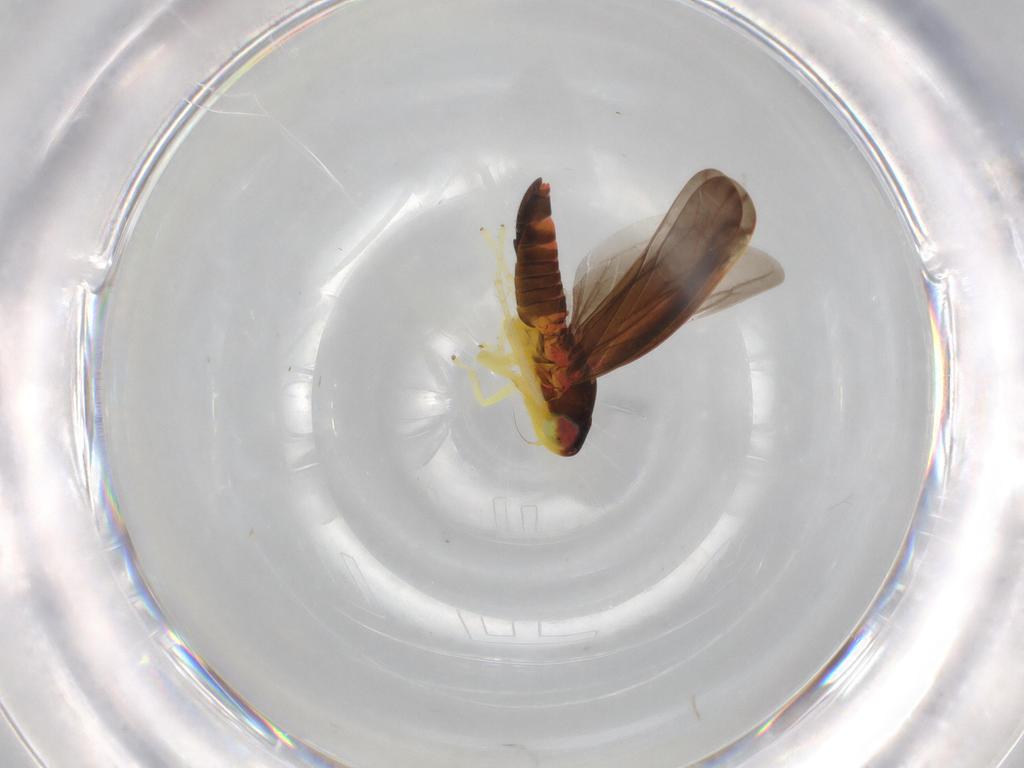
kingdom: Animalia
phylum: Arthropoda
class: Insecta
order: Hemiptera
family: Cicadellidae
